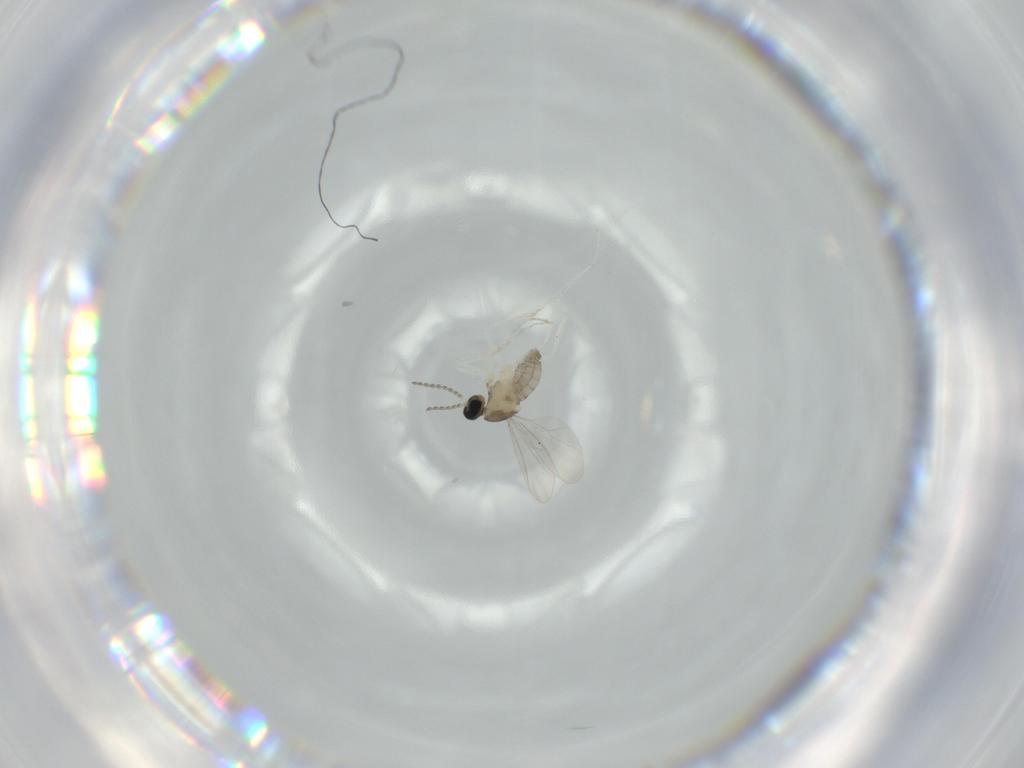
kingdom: Animalia
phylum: Arthropoda
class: Insecta
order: Diptera
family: Cecidomyiidae
